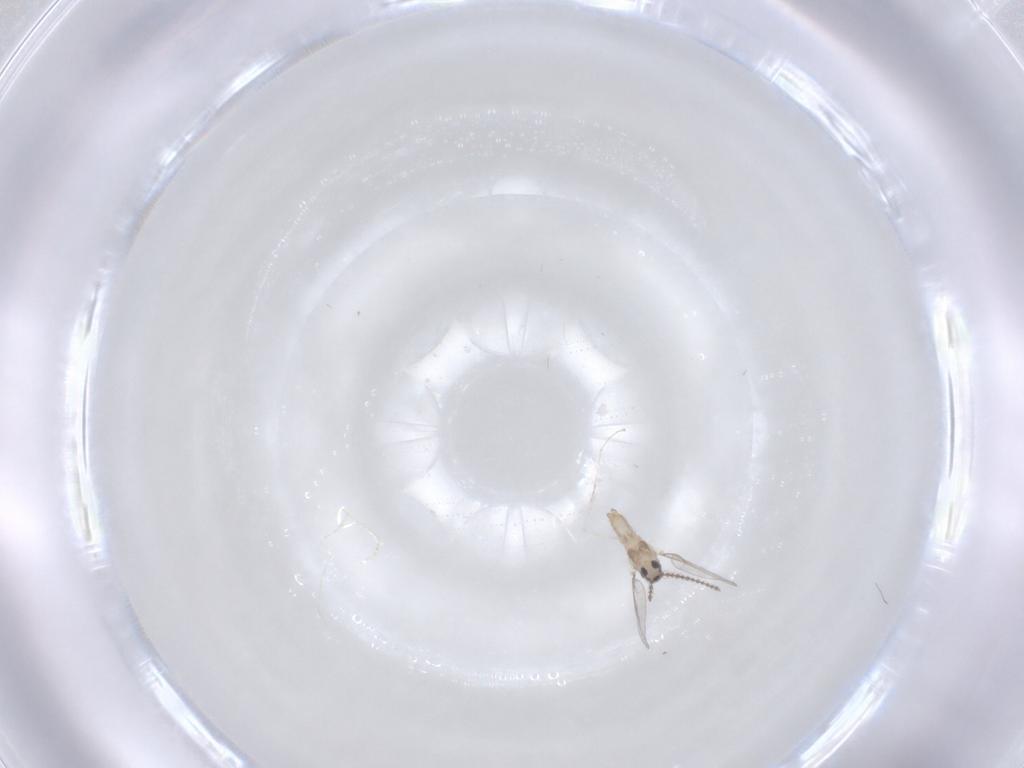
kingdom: Animalia
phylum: Arthropoda
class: Insecta
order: Diptera
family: Cecidomyiidae
